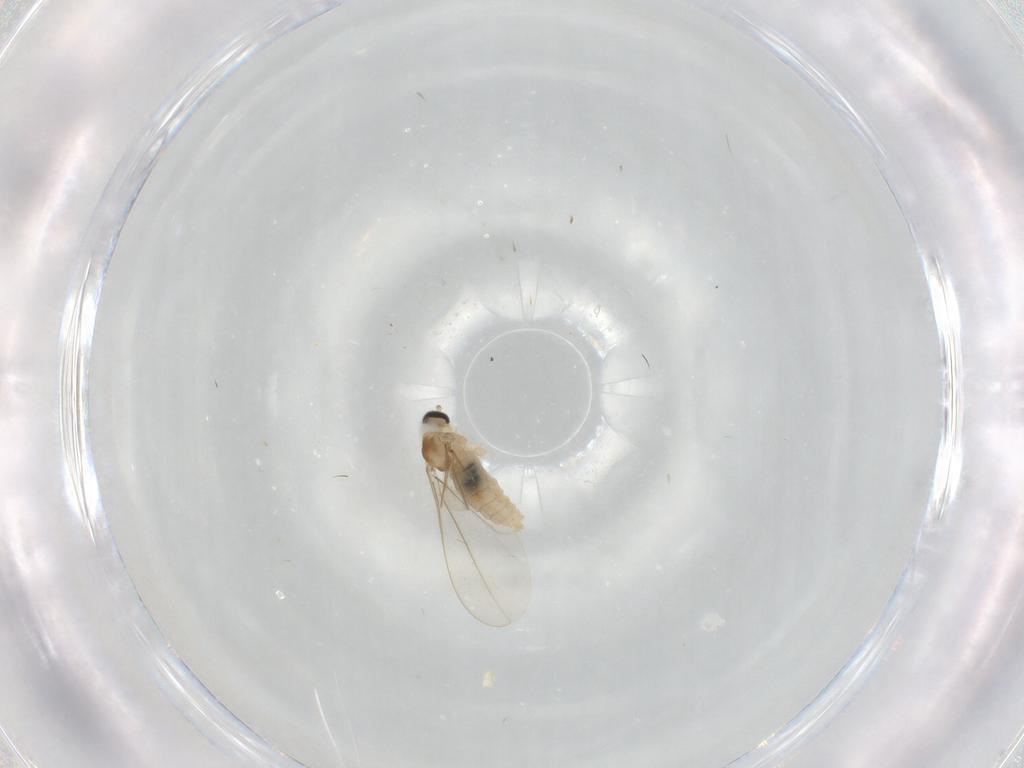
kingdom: Animalia
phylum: Arthropoda
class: Insecta
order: Diptera
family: Cecidomyiidae
